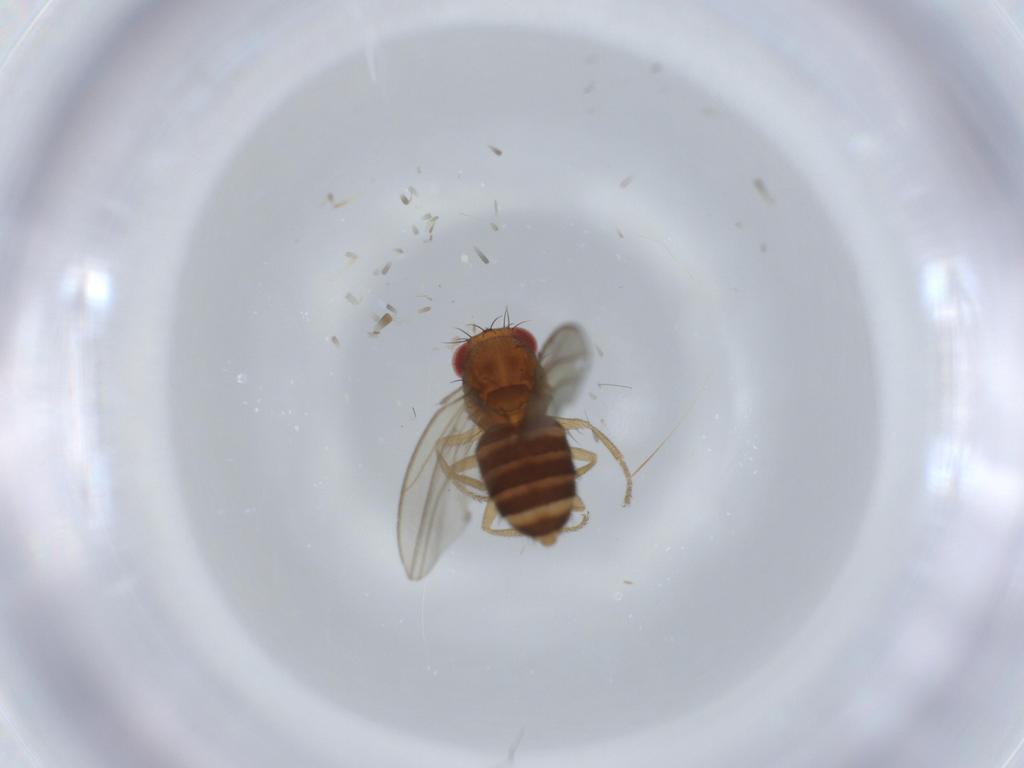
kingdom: Animalia
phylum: Arthropoda
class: Insecta
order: Diptera
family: Drosophilidae
